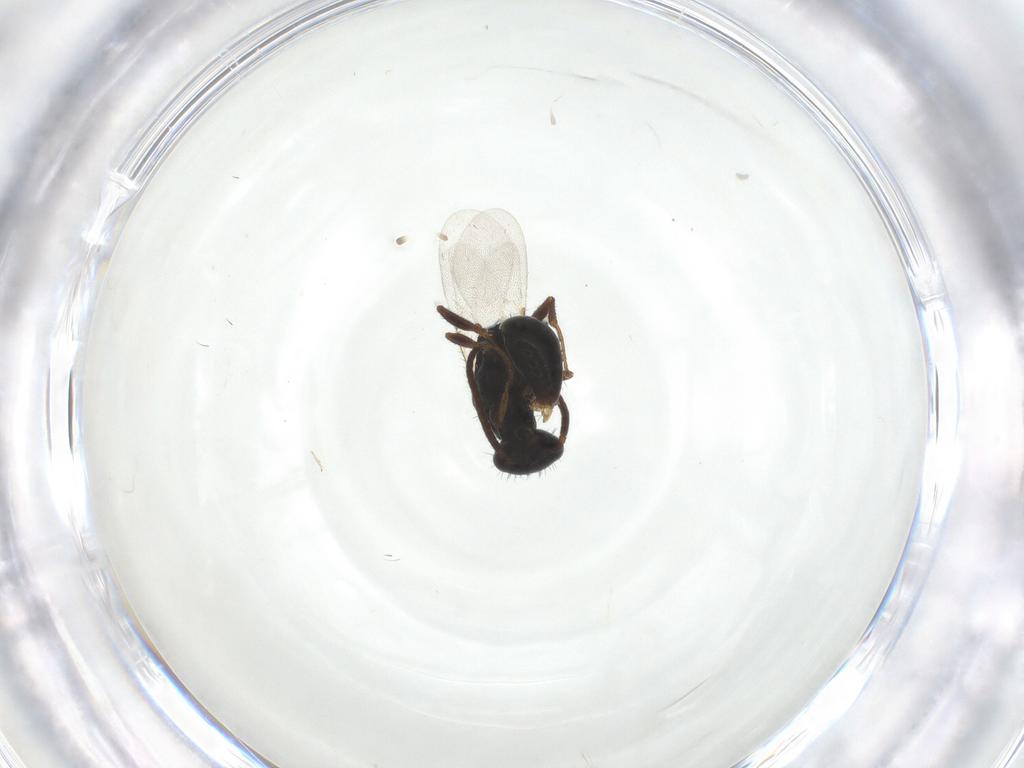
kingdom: Animalia
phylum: Arthropoda
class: Insecta
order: Hymenoptera
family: Bethylidae
